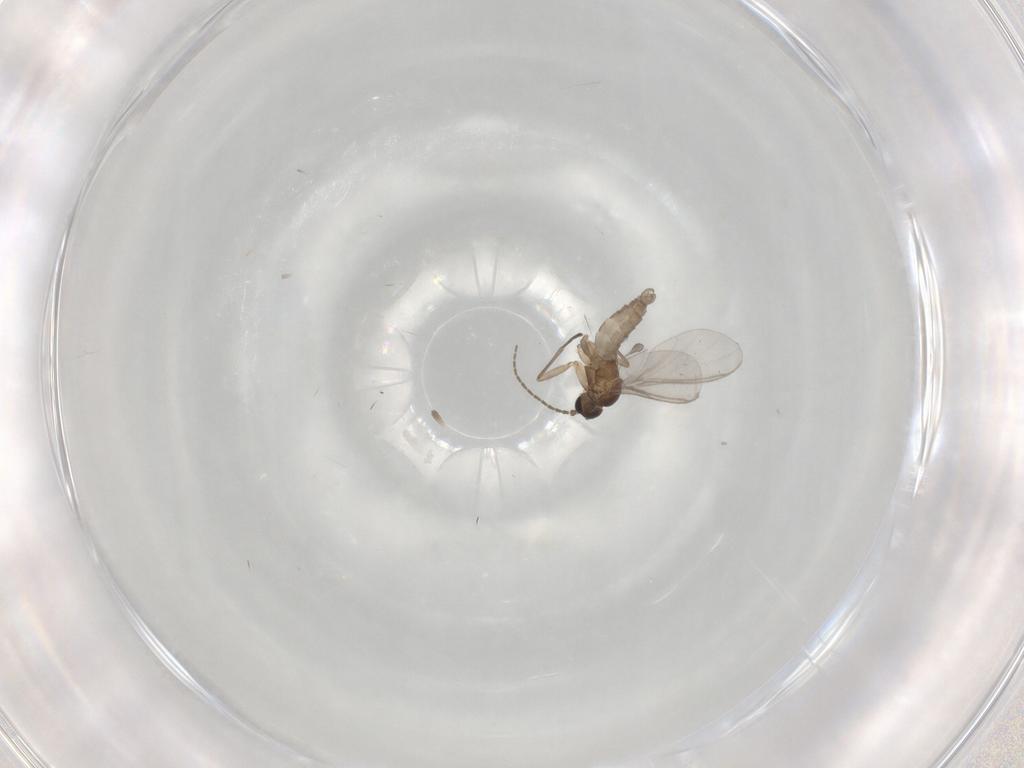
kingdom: Animalia
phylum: Arthropoda
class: Insecta
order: Diptera
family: Sciaridae
